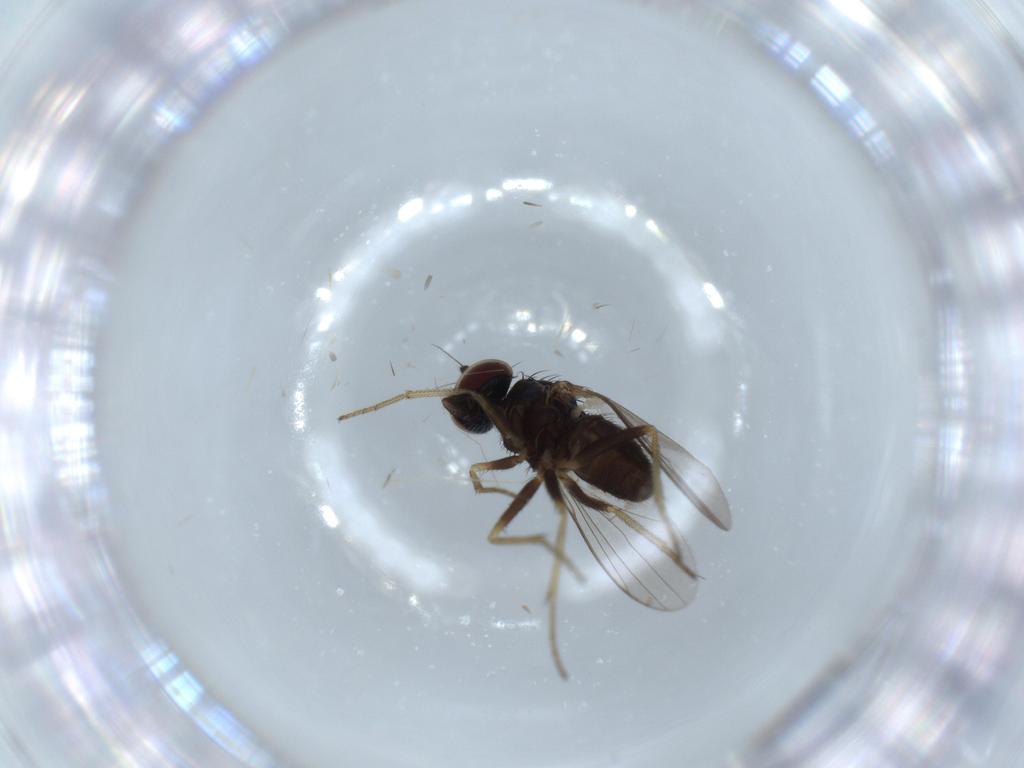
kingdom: Animalia
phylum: Arthropoda
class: Insecta
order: Diptera
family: Dolichopodidae
